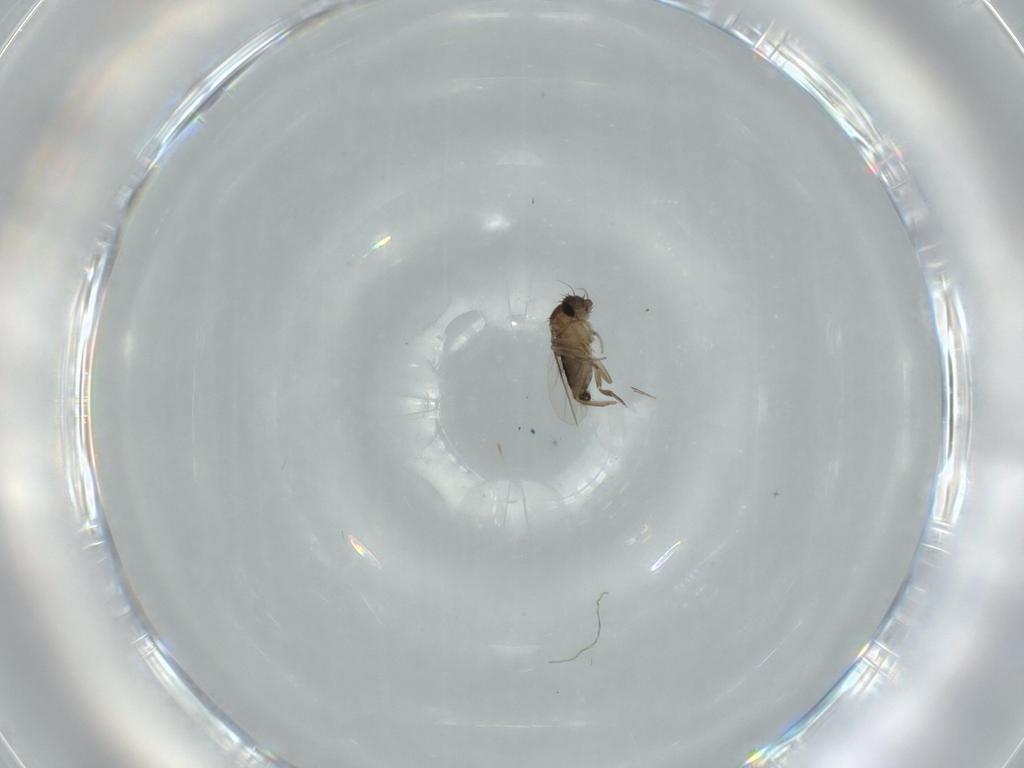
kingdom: Animalia
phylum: Arthropoda
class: Insecta
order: Diptera
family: Phoridae
